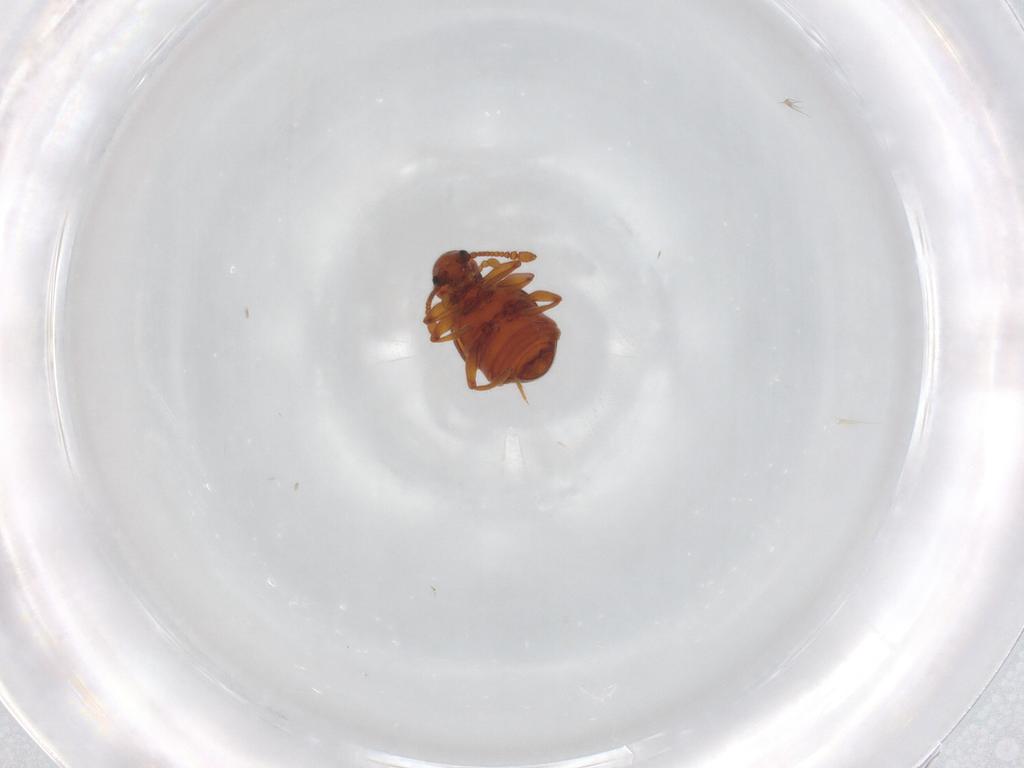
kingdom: Animalia
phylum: Arthropoda
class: Insecta
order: Coleoptera
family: Staphylinidae
